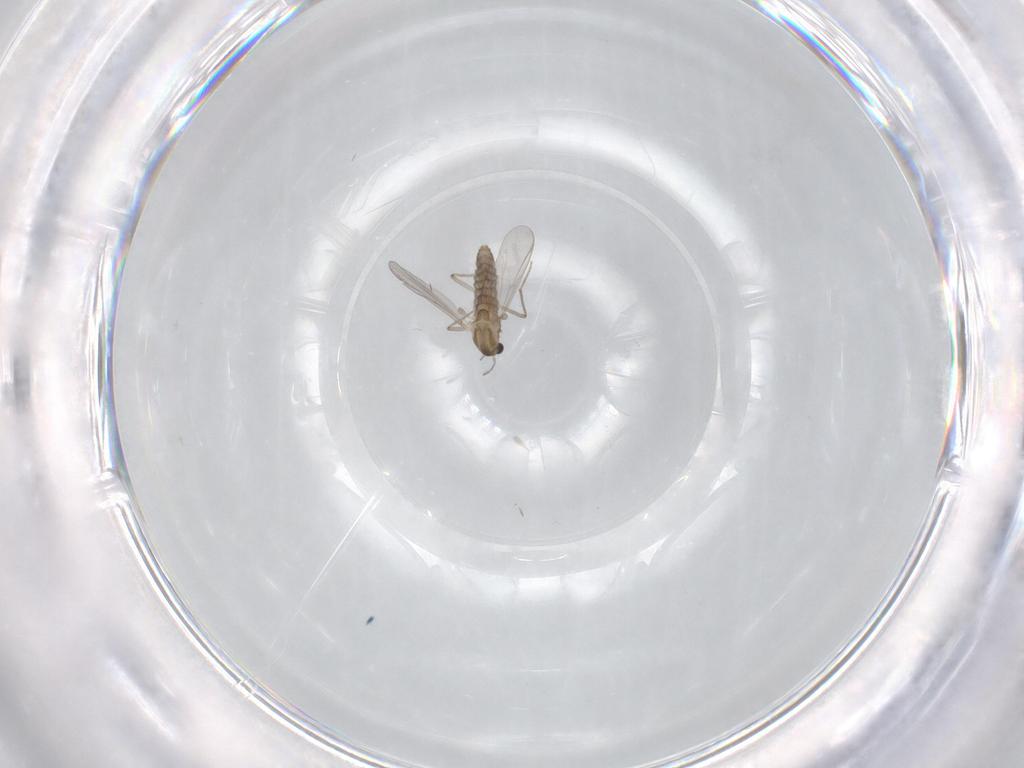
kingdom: Animalia
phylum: Arthropoda
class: Insecta
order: Diptera
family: Chironomidae
